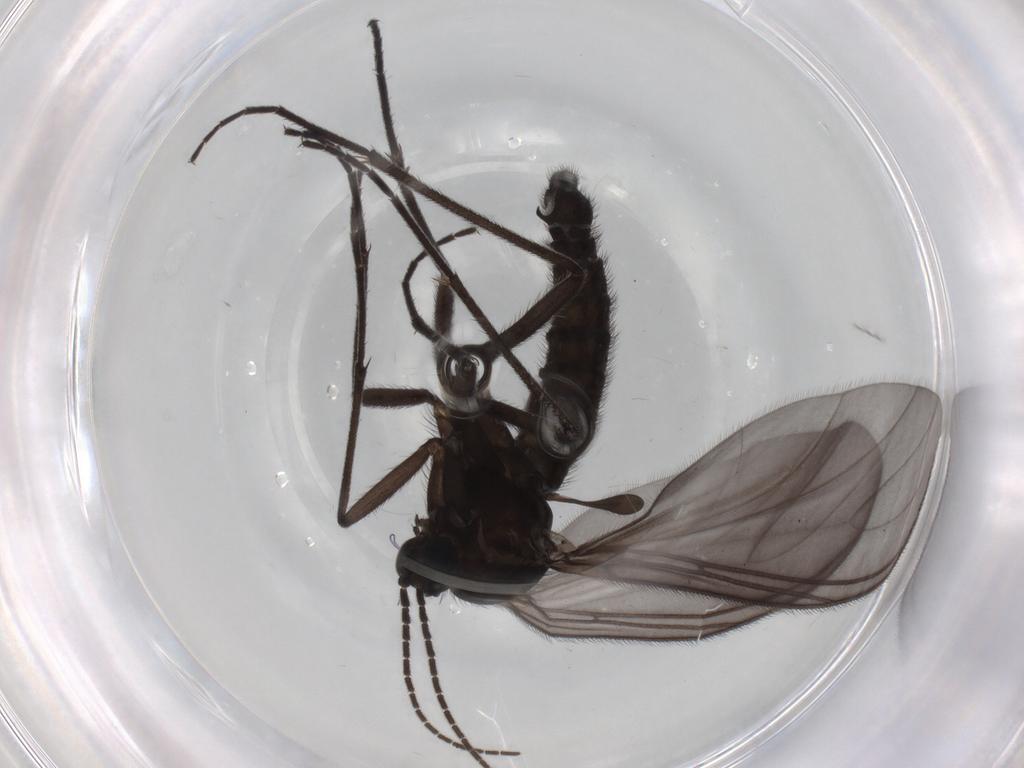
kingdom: Animalia
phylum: Arthropoda
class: Insecta
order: Diptera
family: Sciaridae
